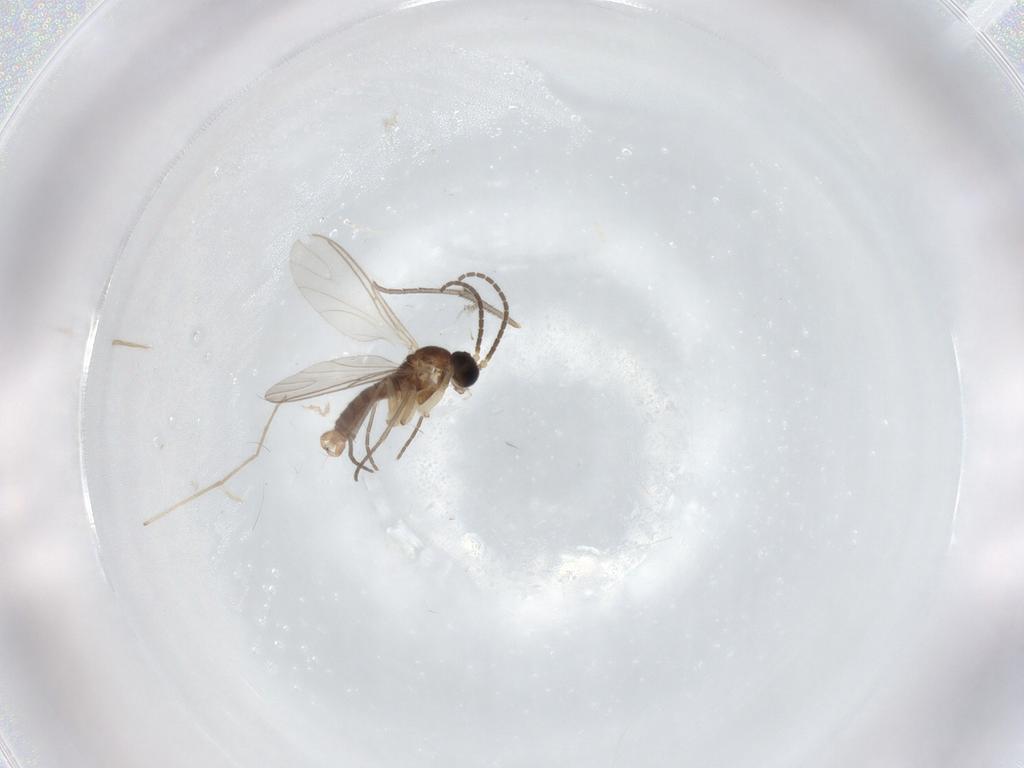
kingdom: Animalia
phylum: Arthropoda
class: Insecta
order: Diptera
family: Sciaridae
